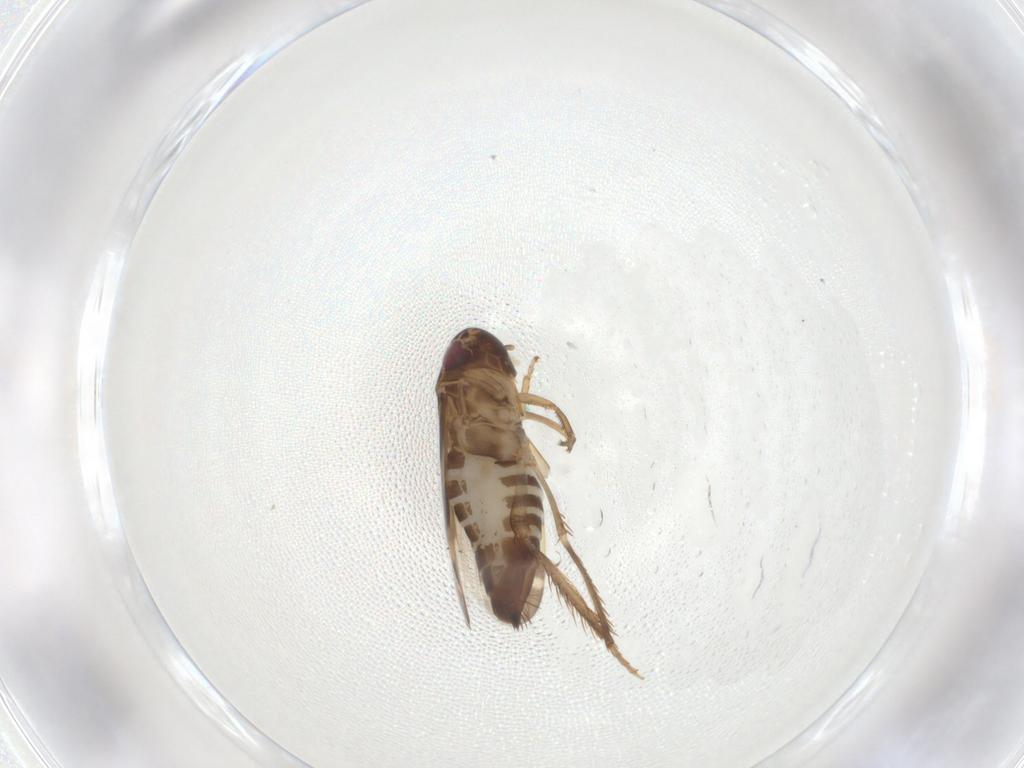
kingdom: Animalia
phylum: Arthropoda
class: Insecta
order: Hemiptera
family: Cicadellidae
